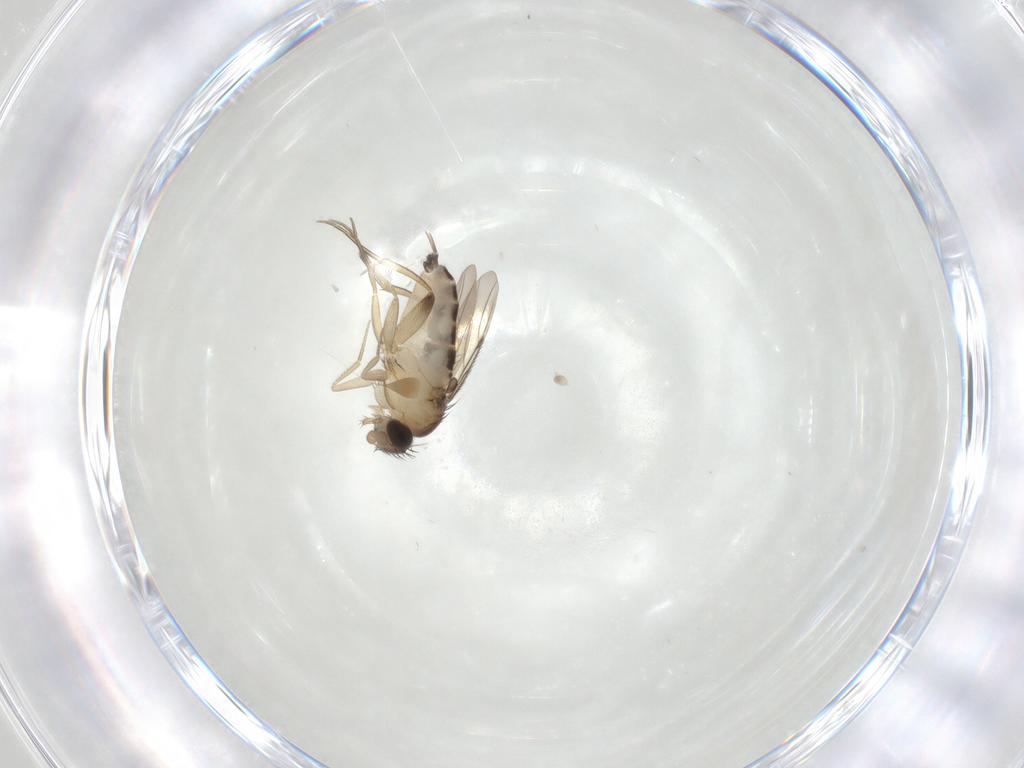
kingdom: Animalia
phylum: Arthropoda
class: Insecta
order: Diptera
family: Phoridae
